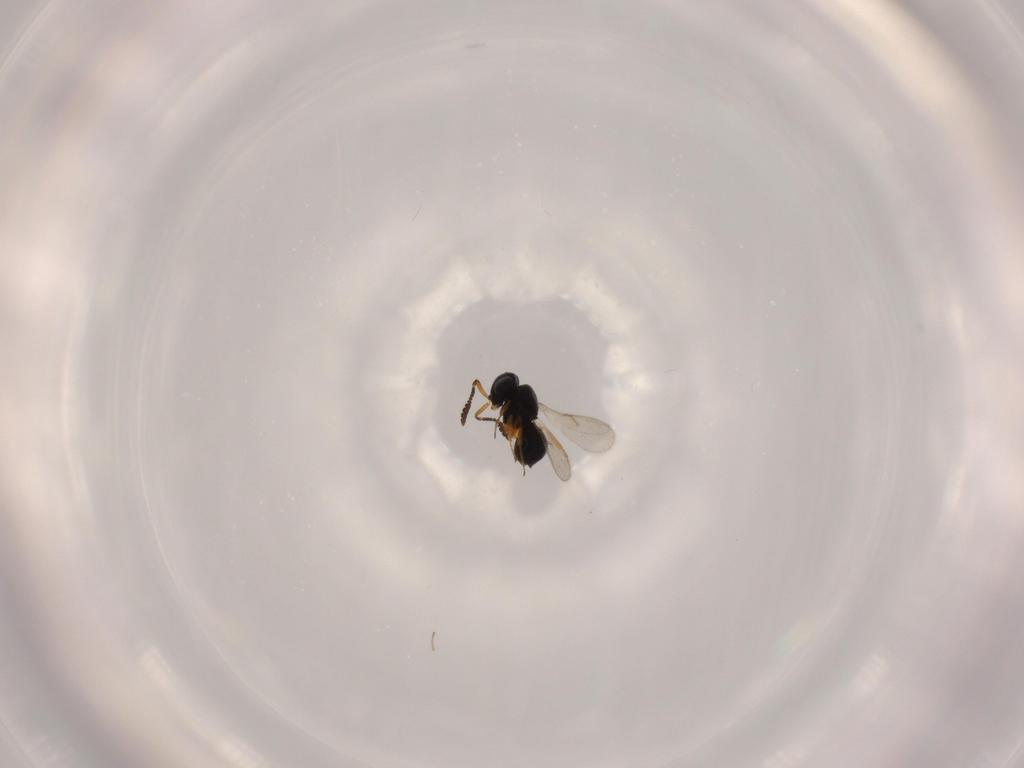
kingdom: Animalia
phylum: Arthropoda
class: Insecta
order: Hymenoptera
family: Scelionidae
